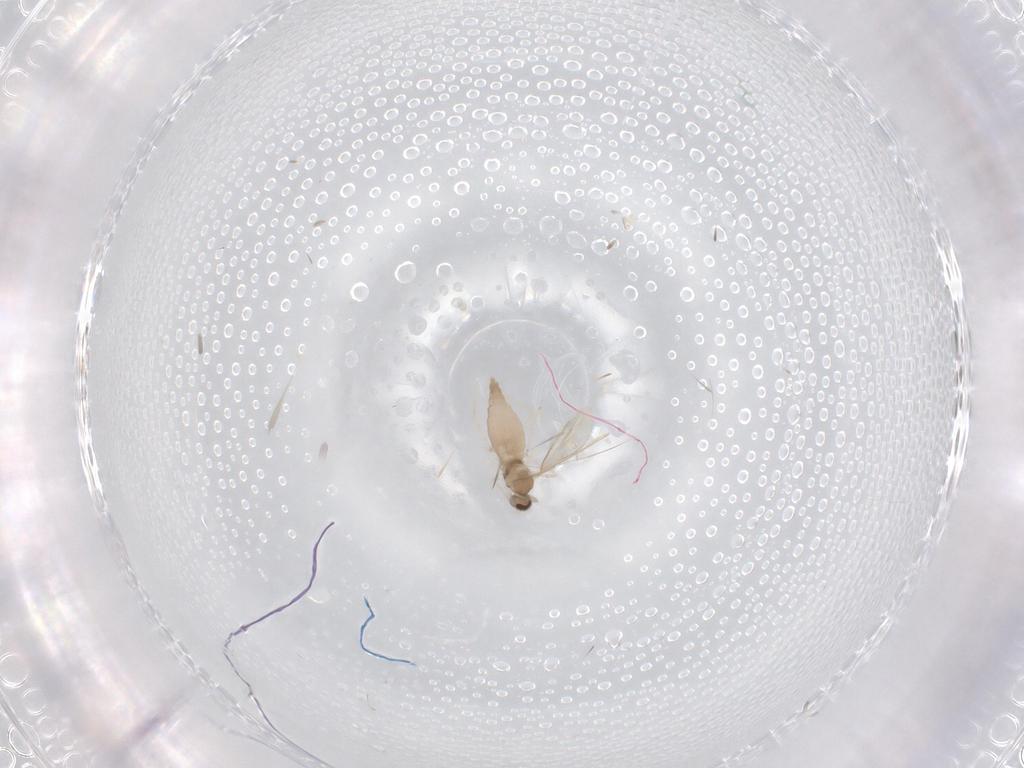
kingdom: Animalia
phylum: Arthropoda
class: Insecta
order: Diptera
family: Cecidomyiidae
